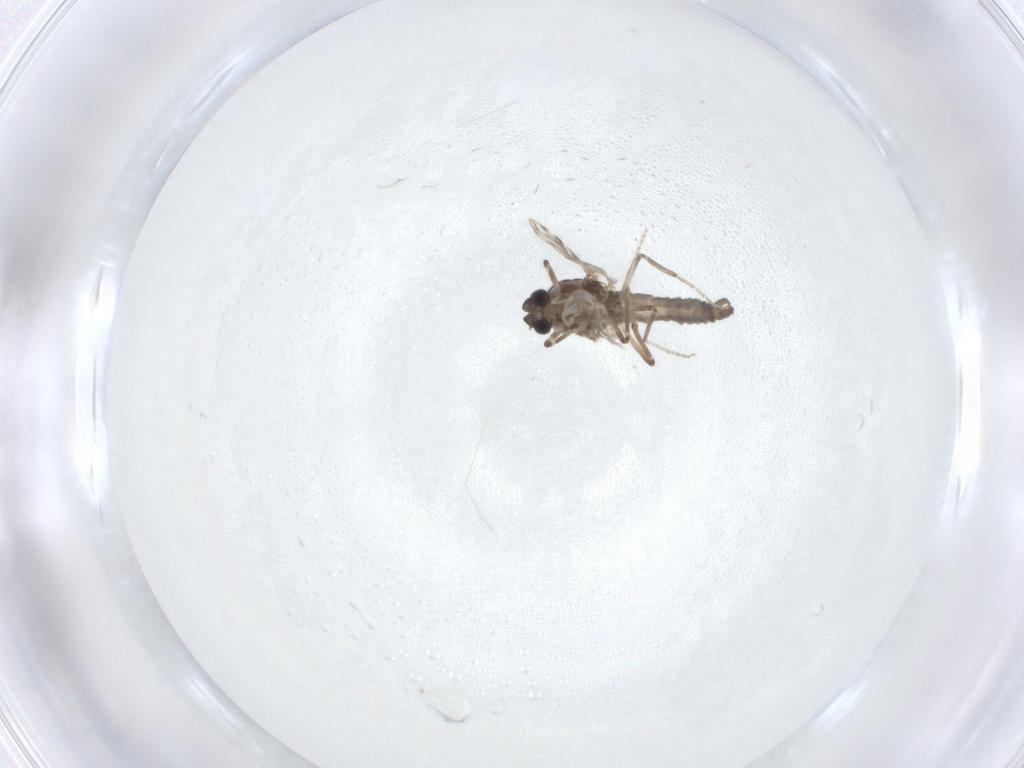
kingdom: Animalia
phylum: Arthropoda
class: Insecta
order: Diptera
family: Ceratopogonidae
